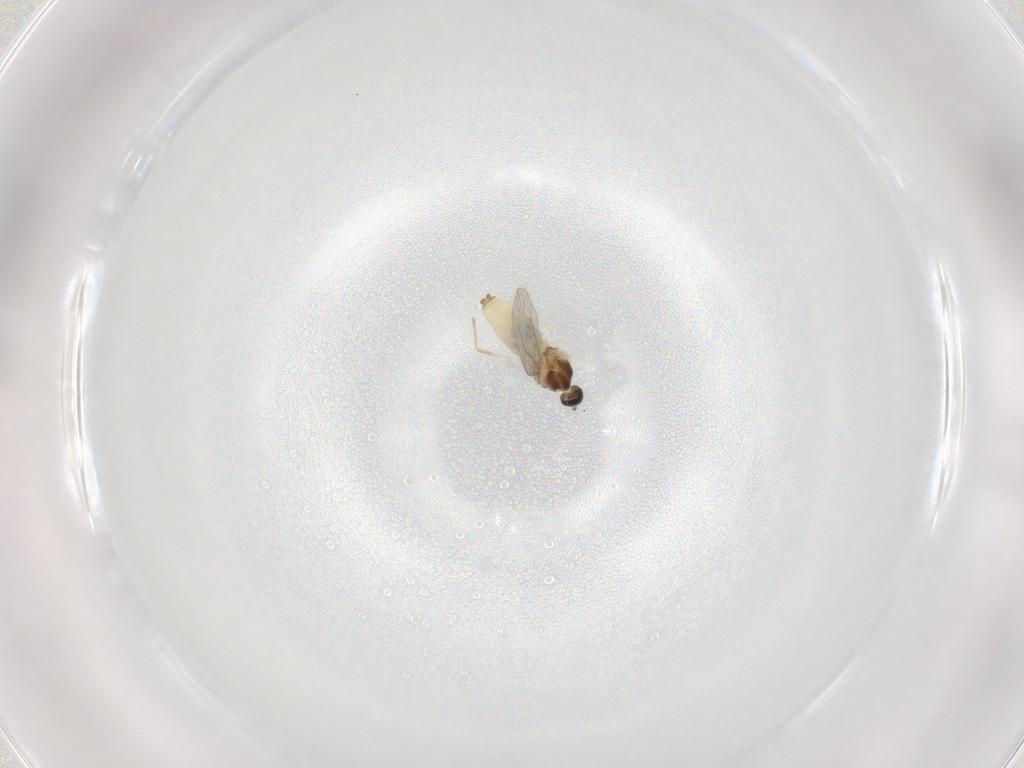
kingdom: Animalia
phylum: Arthropoda
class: Insecta
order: Diptera
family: Cecidomyiidae
